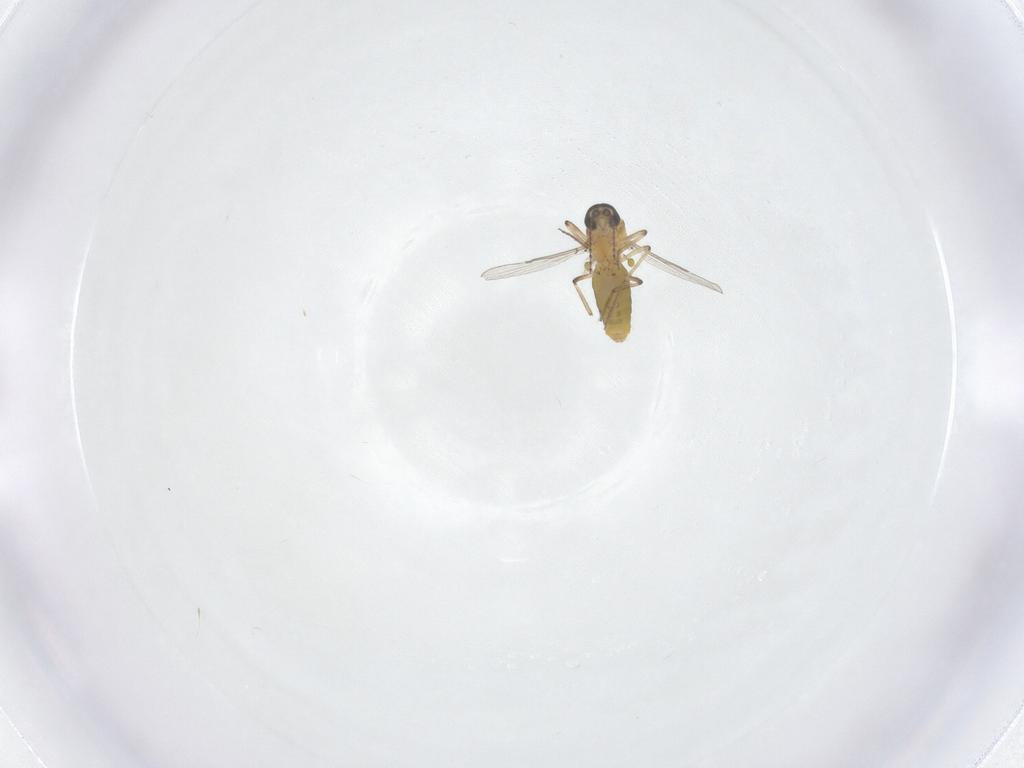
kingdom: Animalia
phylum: Arthropoda
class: Insecta
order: Diptera
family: Ceratopogonidae
